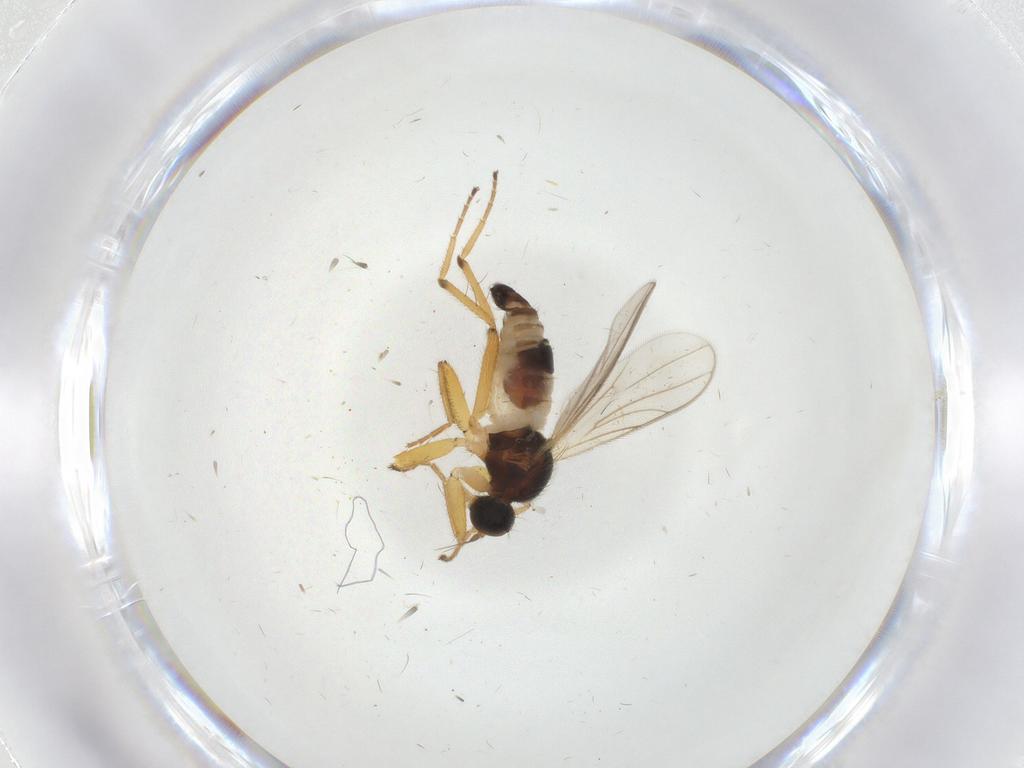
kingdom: Animalia
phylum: Arthropoda
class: Insecta
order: Diptera
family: Hybotidae
